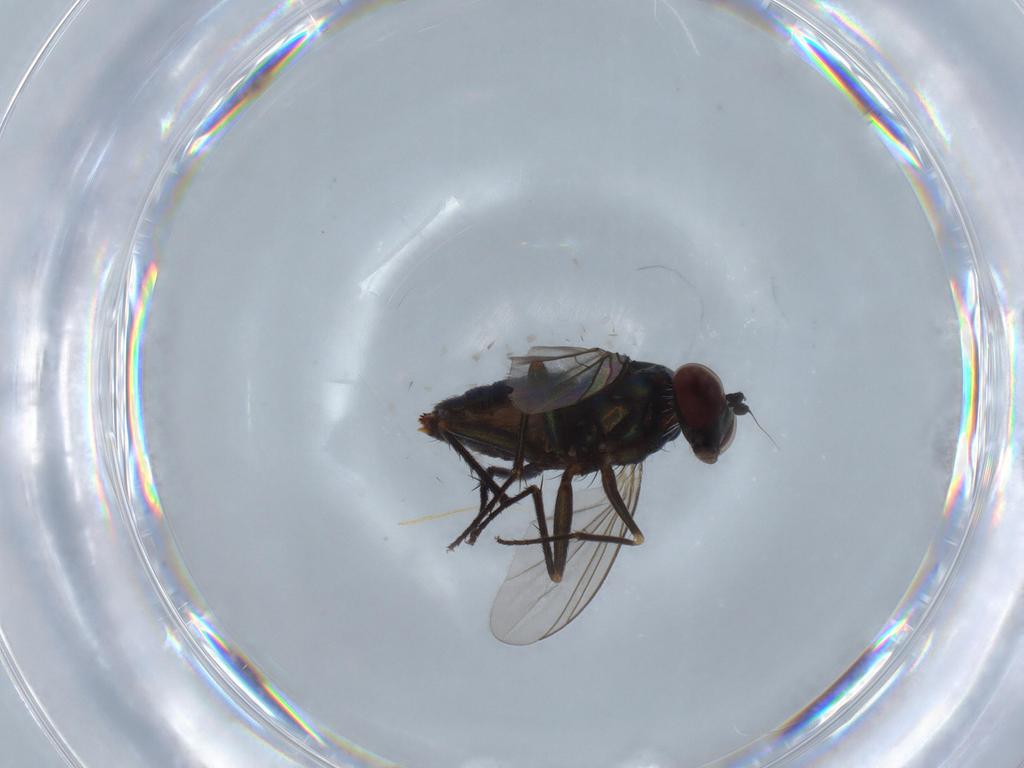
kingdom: Animalia
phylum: Arthropoda
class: Insecta
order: Diptera
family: Dolichopodidae
